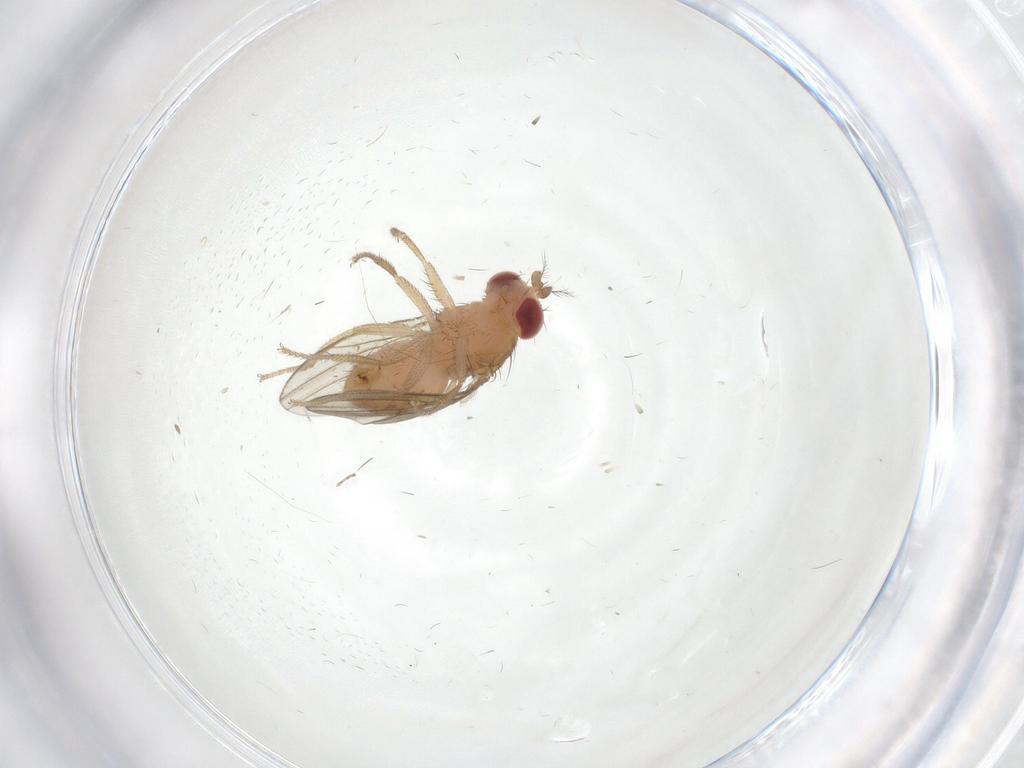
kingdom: Animalia
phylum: Arthropoda
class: Insecta
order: Diptera
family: Drosophilidae
